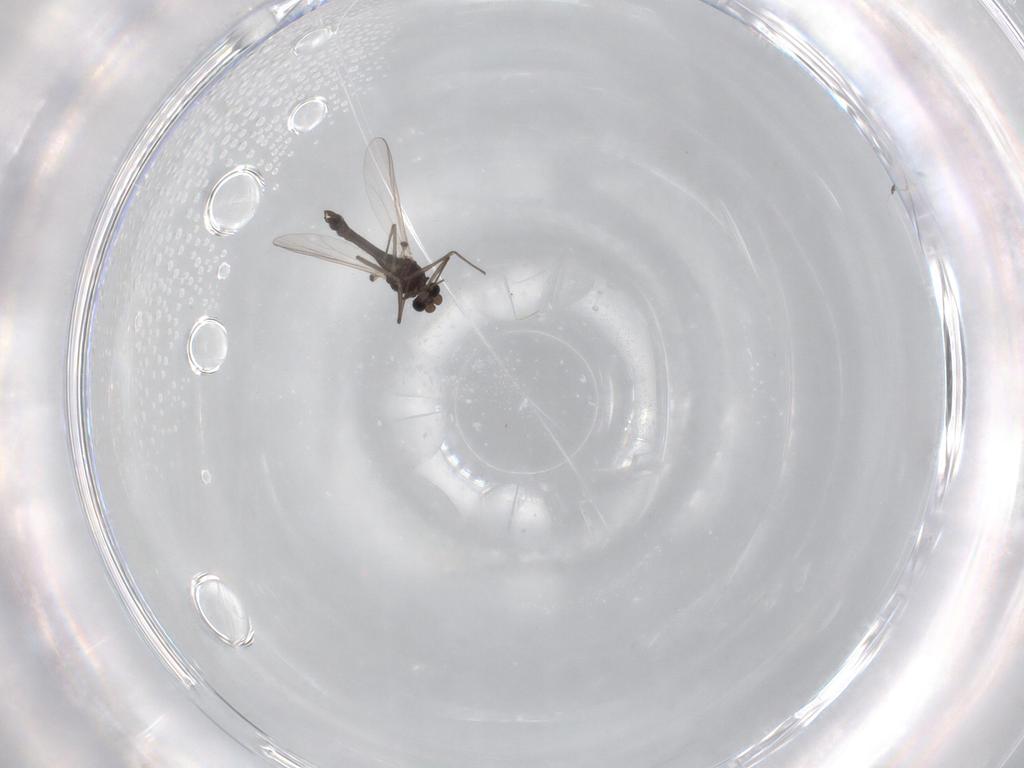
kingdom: Animalia
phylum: Arthropoda
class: Insecta
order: Diptera
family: Chironomidae
